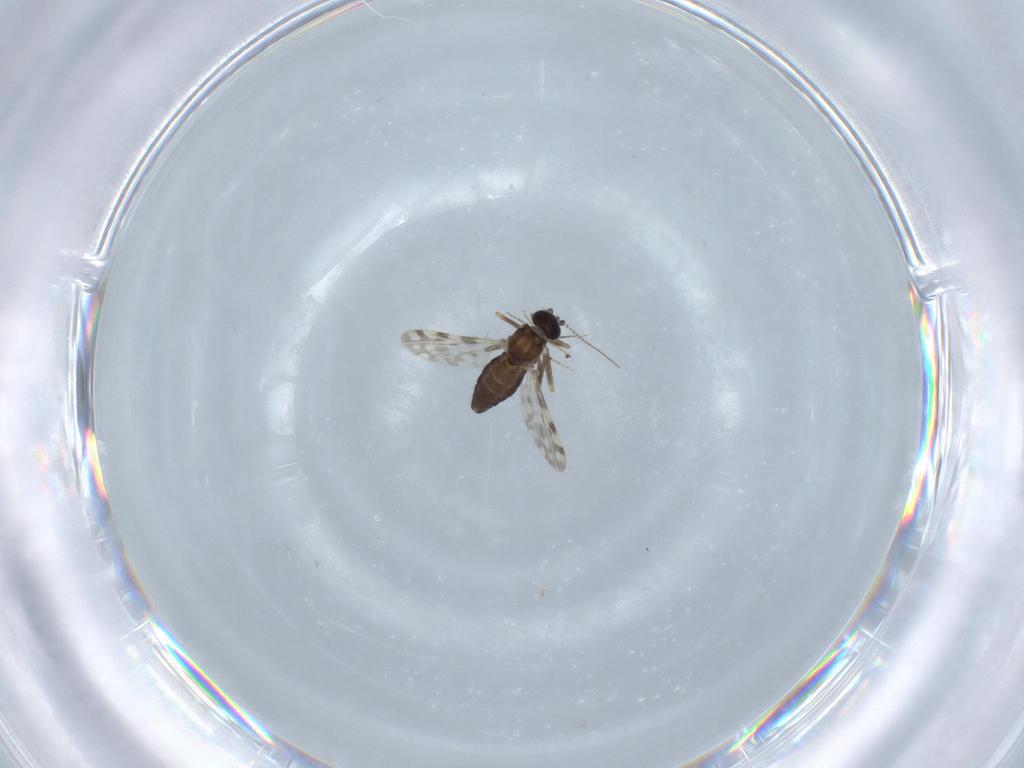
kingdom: Animalia
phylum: Arthropoda
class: Insecta
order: Diptera
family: Ceratopogonidae
